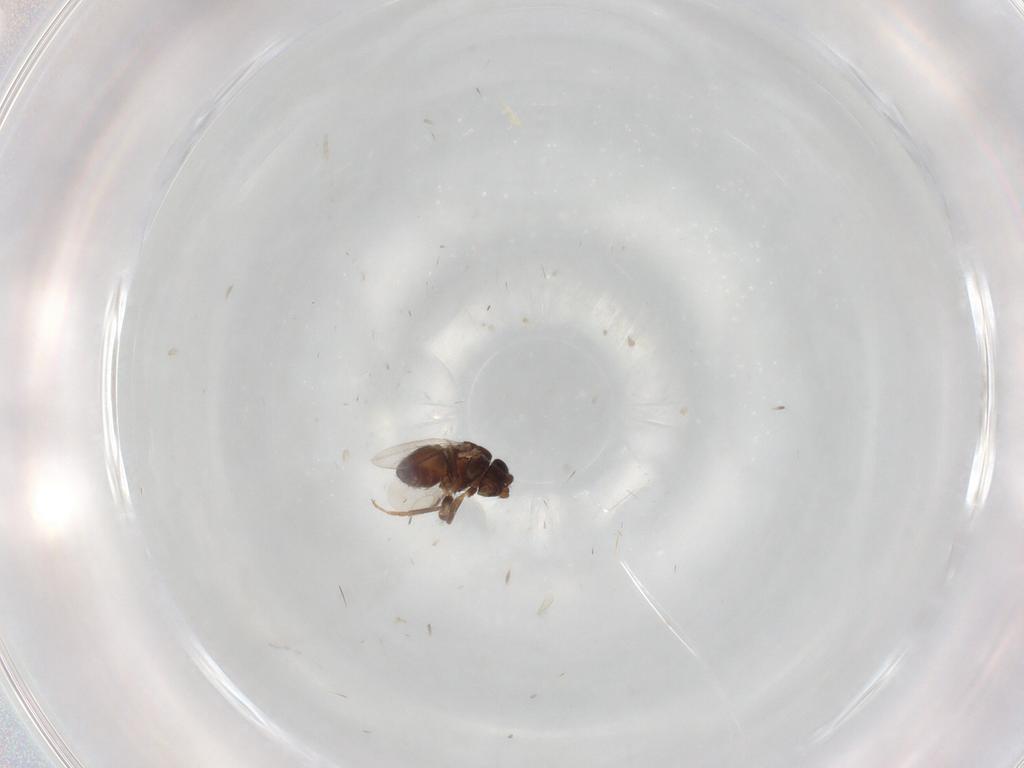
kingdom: Animalia
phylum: Arthropoda
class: Insecta
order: Diptera
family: Sphaeroceridae
